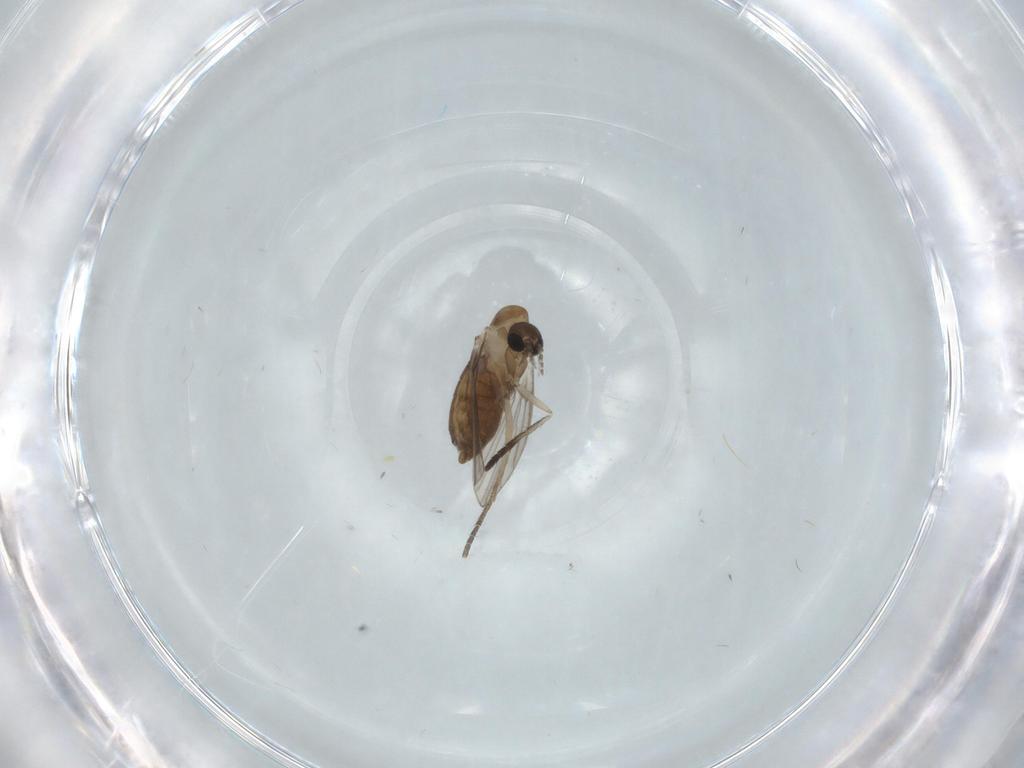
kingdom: Animalia
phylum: Arthropoda
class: Insecta
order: Diptera
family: Psychodidae
